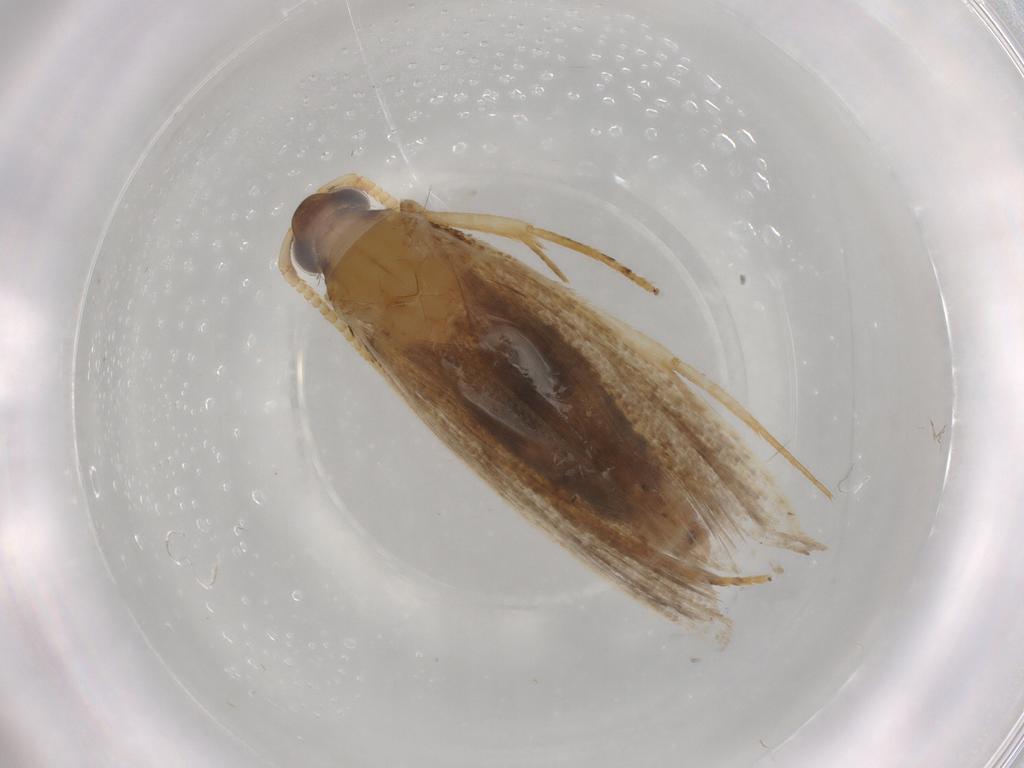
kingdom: Animalia
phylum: Arthropoda
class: Insecta
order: Lepidoptera
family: Lecithoceridae
